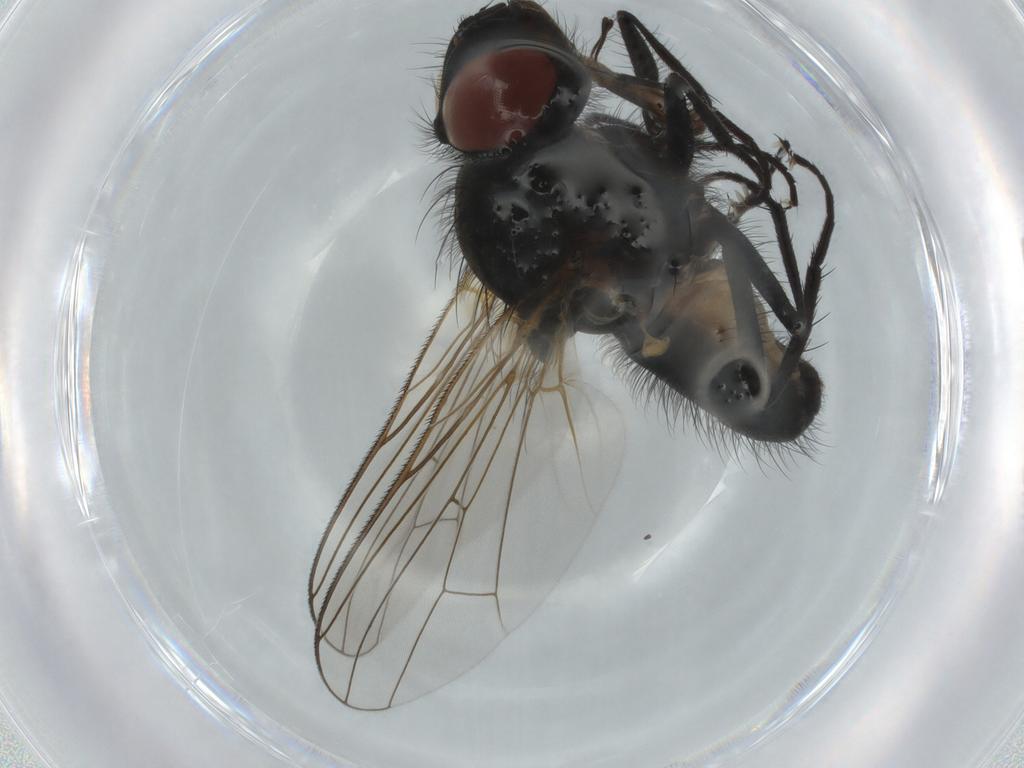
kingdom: Animalia
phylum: Arthropoda
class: Insecta
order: Diptera
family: Anthomyiidae
